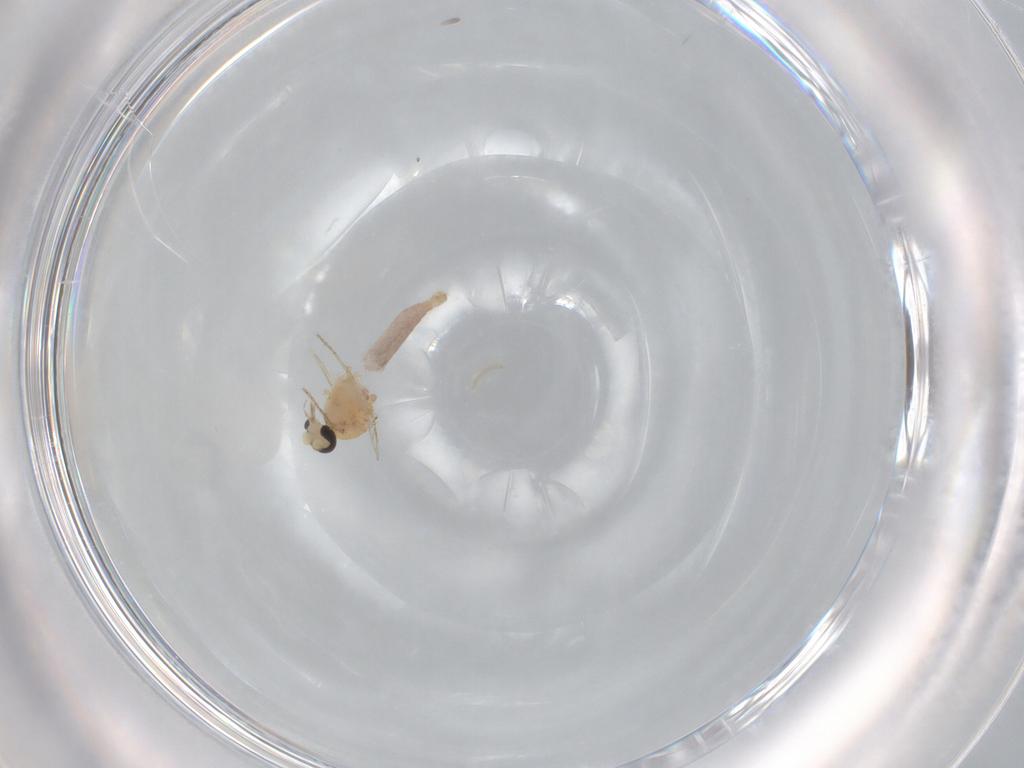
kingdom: Animalia
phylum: Arthropoda
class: Insecta
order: Diptera
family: Ceratopogonidae
